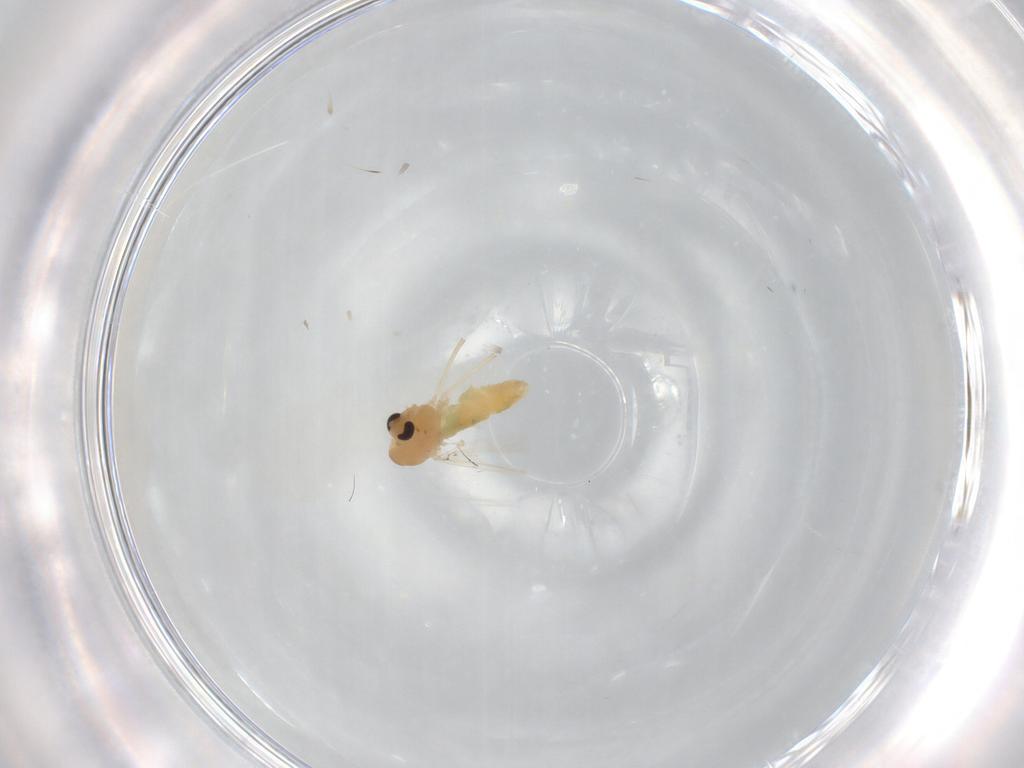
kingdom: Animalia
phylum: Arthropoda
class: Insecta
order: Diptera
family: Chironomidae
